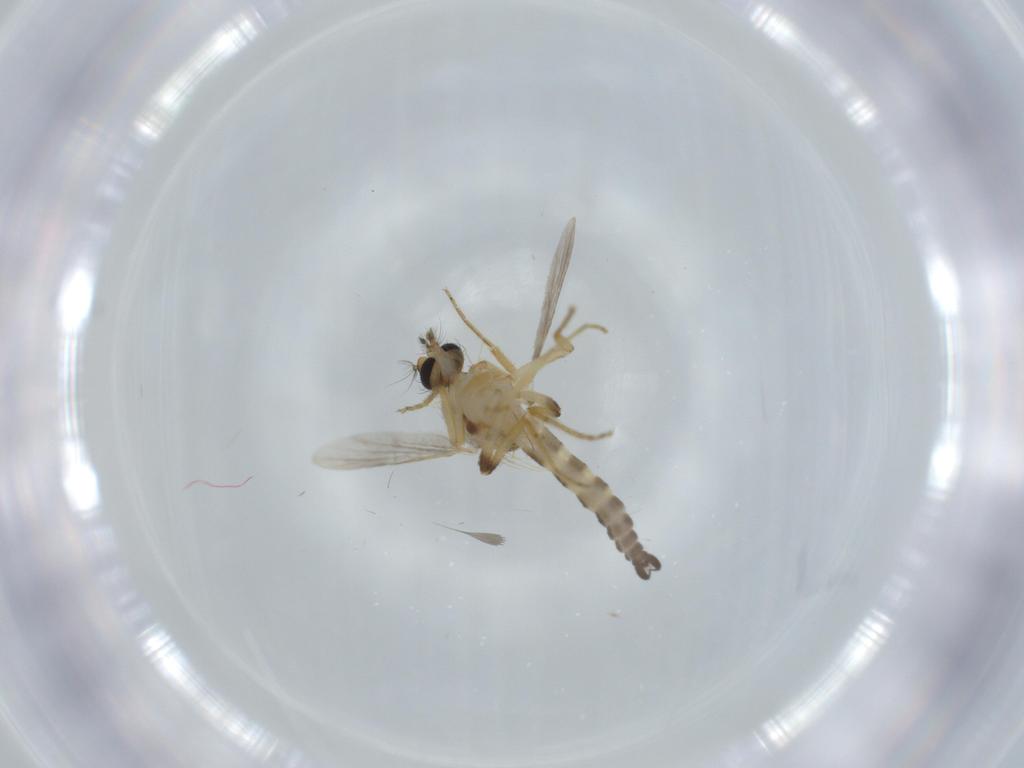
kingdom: Animalia
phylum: Arthropoda
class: Insecta
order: Diptera
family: Ceratopogonidae
